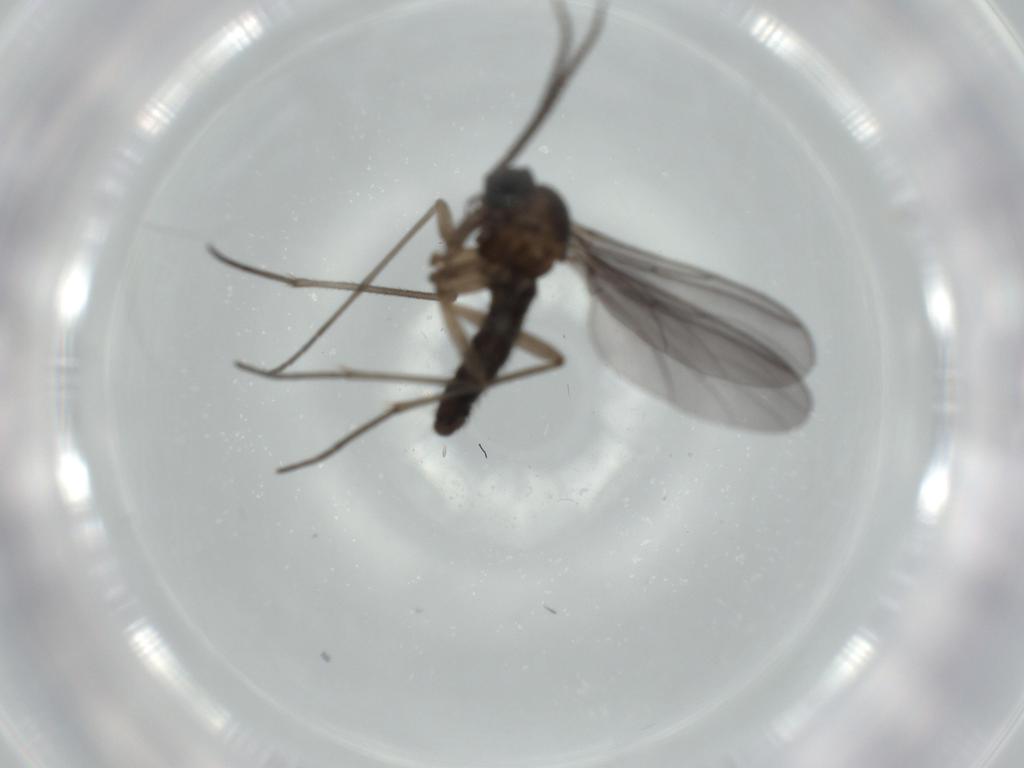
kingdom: Animalia
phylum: Arthropoda
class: Insecta
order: Diptera
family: Sciaridae
